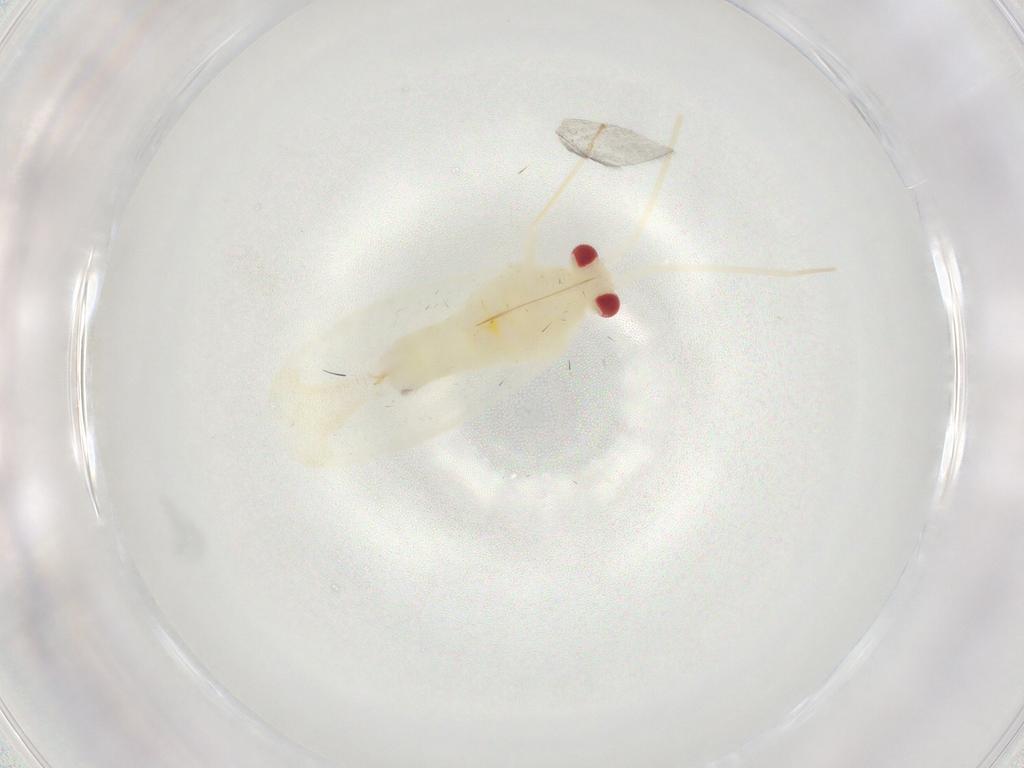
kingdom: Animalia
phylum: Arthropoda
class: Insecta
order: Hemiptera
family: Miridae
